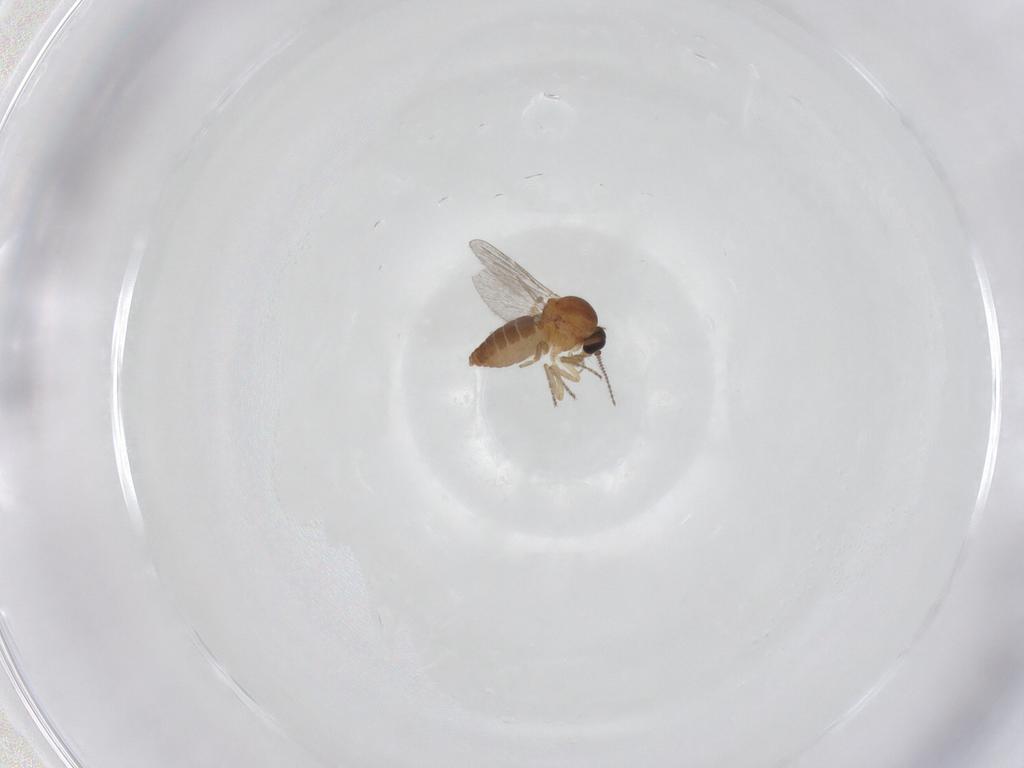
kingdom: Animalia
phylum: Arthropoda
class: Insecta
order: Diptera
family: Ceratopogonidae
